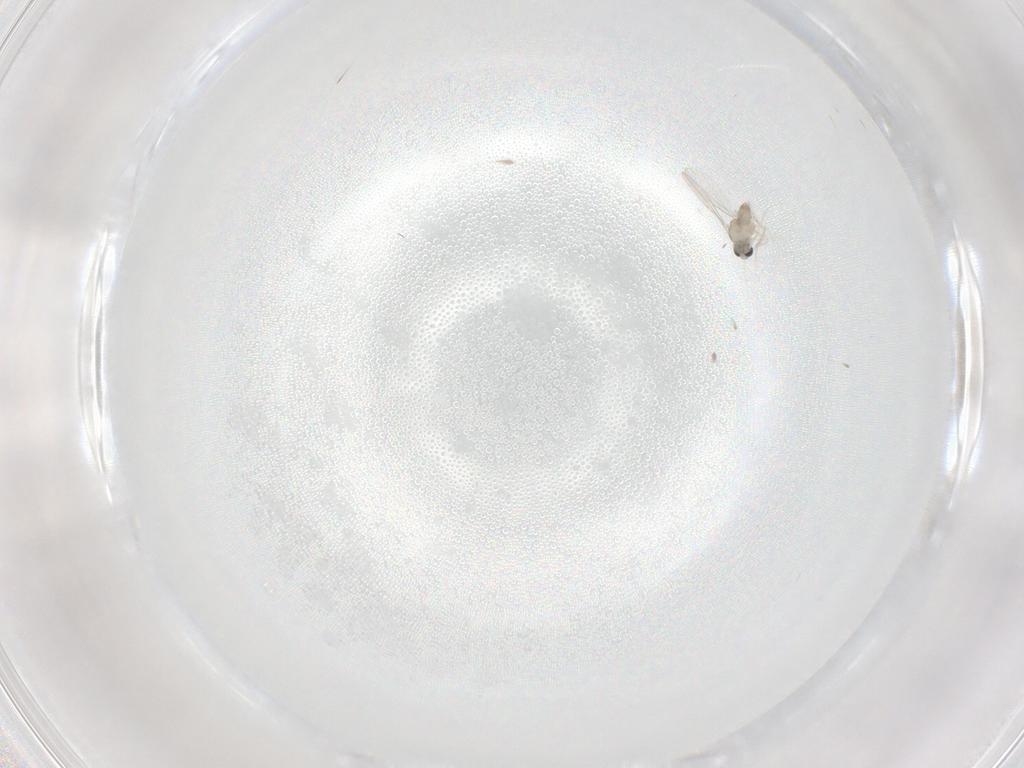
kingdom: Animalia
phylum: Arthropoda
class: Insecta
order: Diptera
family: Cecidomyiidae
